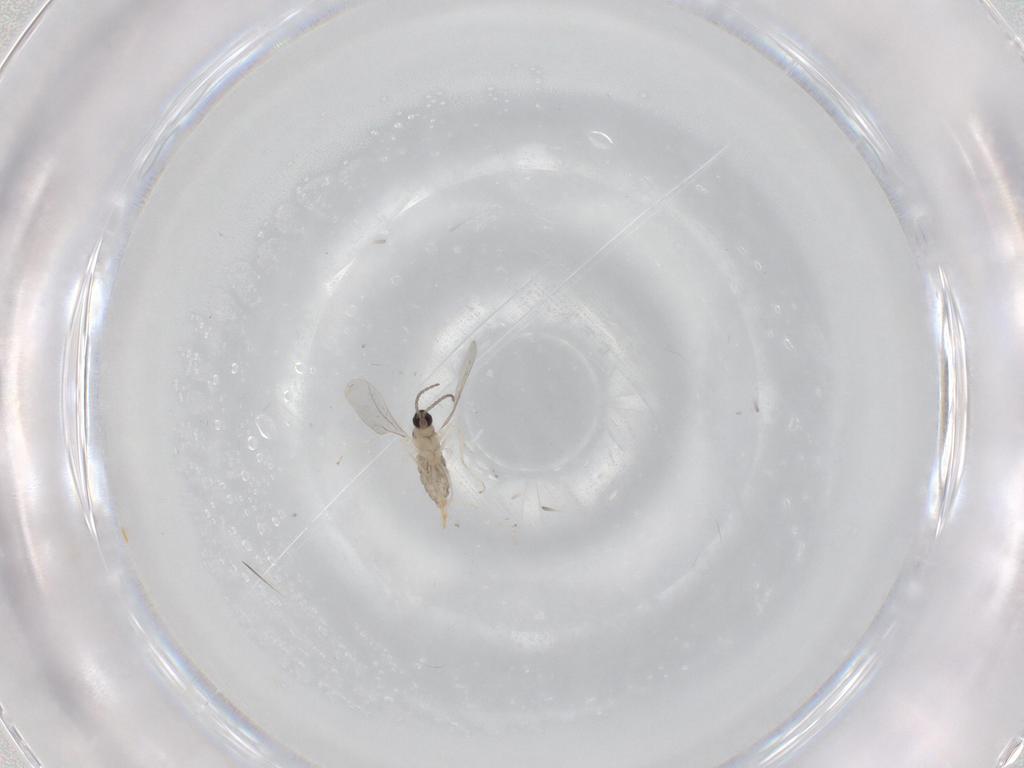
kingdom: Animalia
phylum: Arthropoda
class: Insecta
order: Diptera
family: Cecidomyiidae
